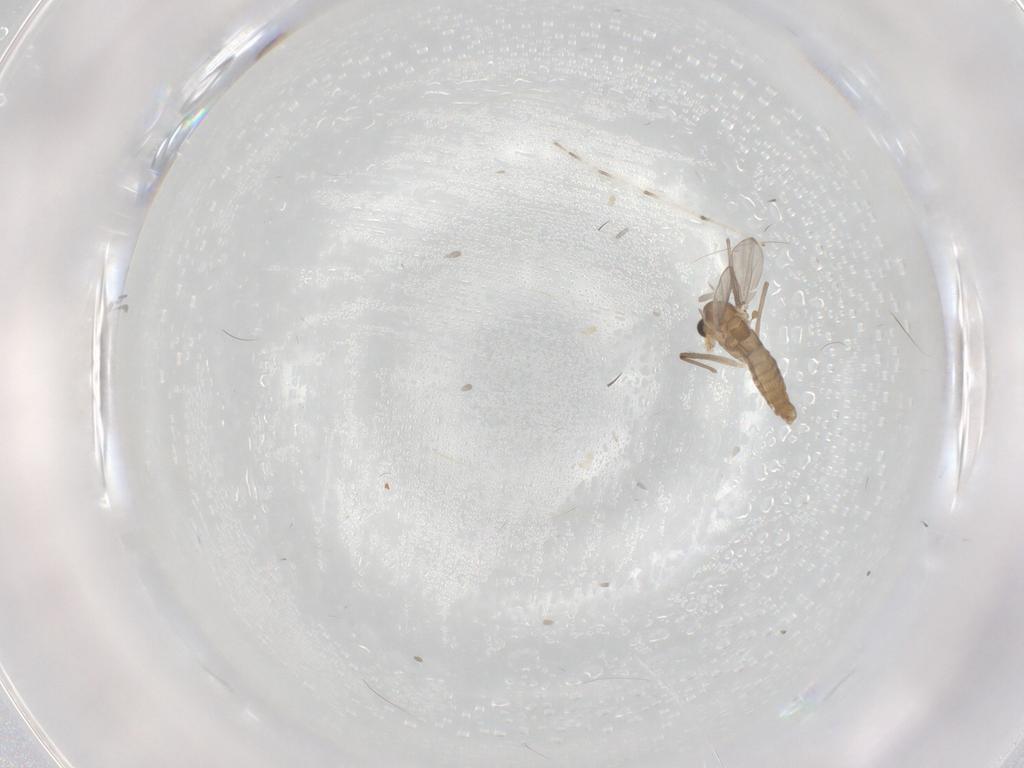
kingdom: Animalia
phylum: Arthropoda
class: Insecta
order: Diptera
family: Chironomidae
